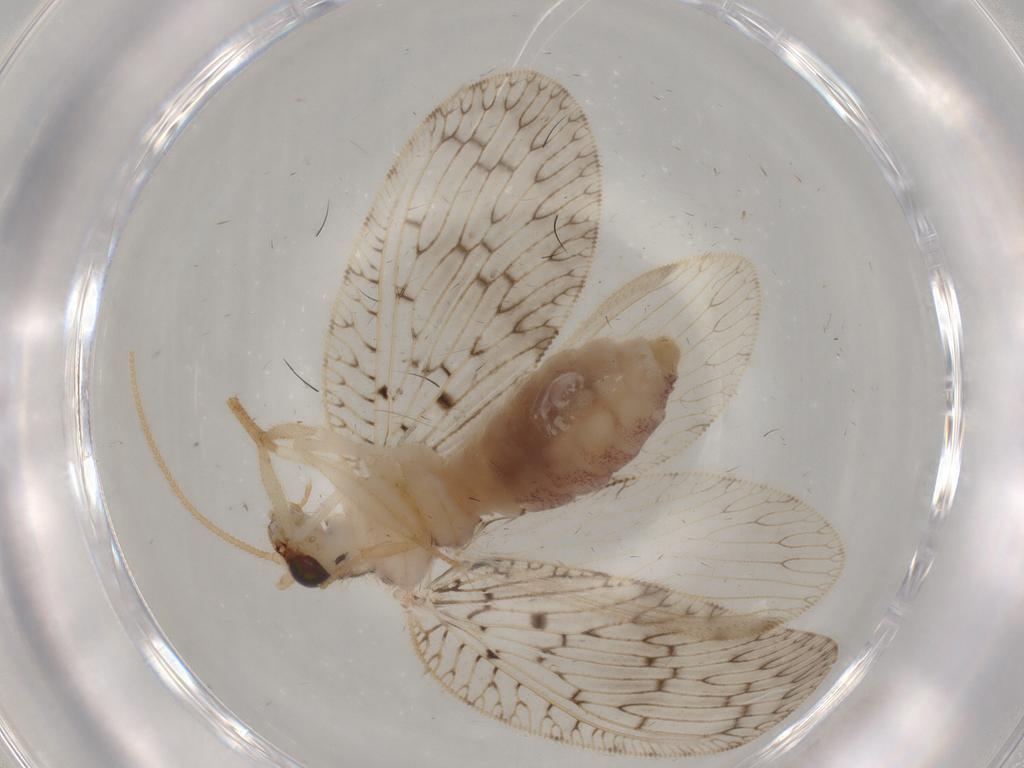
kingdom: Animalia
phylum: Arthropoda
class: Insecta
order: Neuroptera
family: Hemerobiidae
